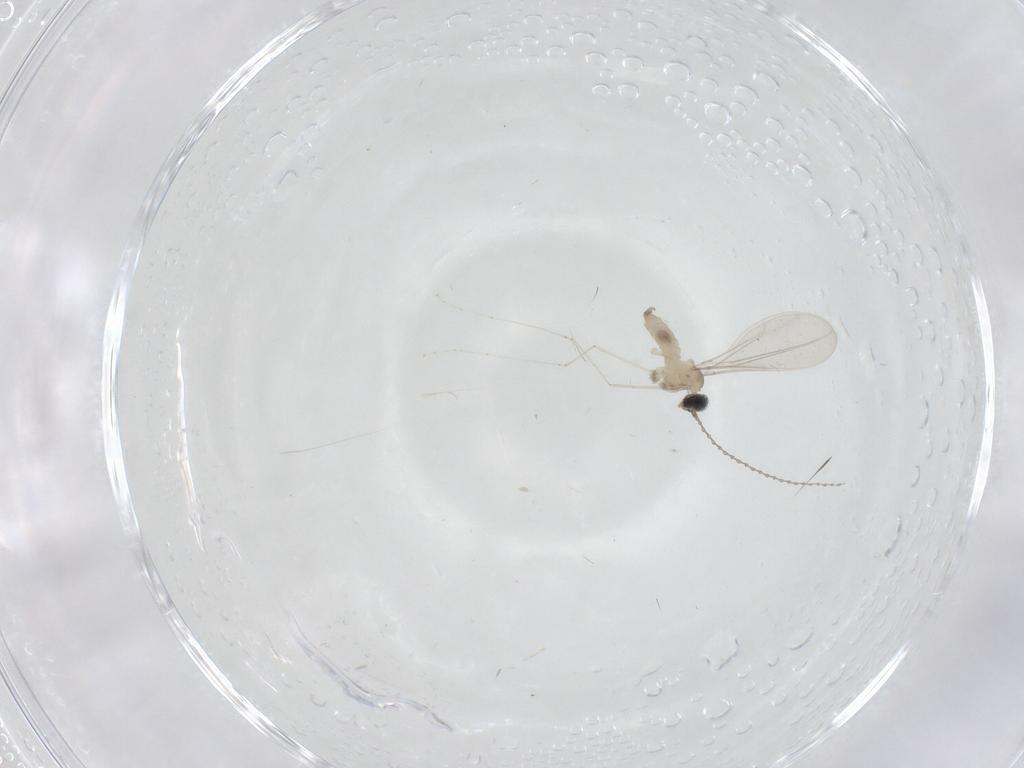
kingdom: Animalia
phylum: Arthropoda
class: Insecta
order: Diptera
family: Cecidomyiidae
